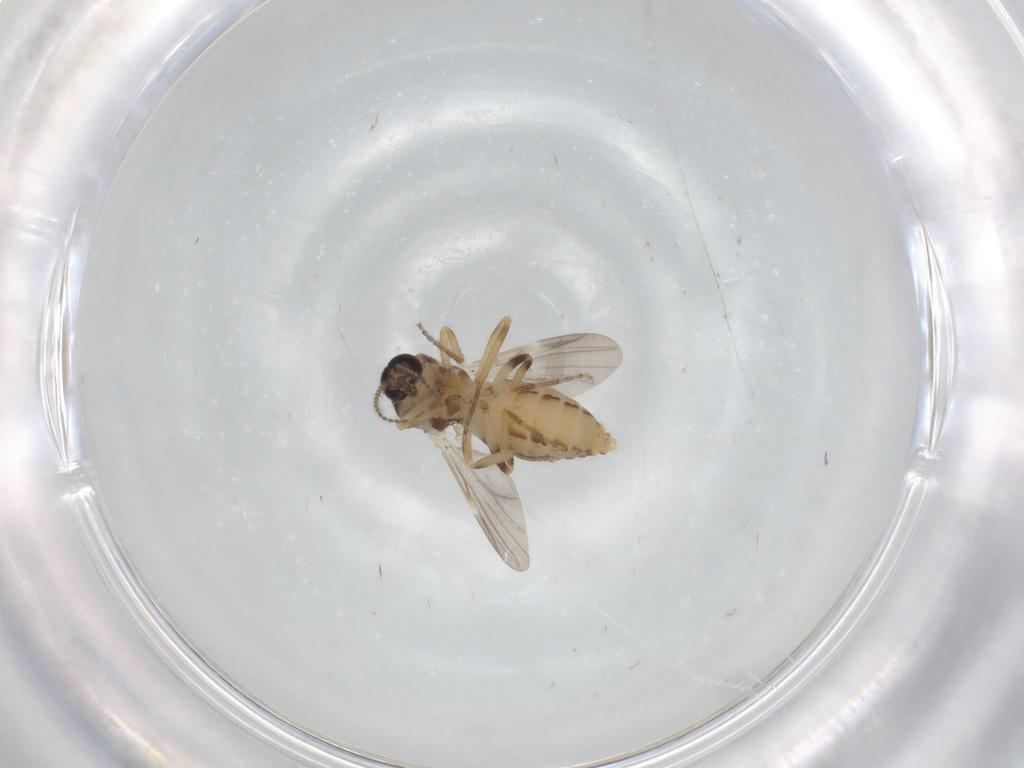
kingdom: Animalia
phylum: Arthropoda
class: Insecta
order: Diptera
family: Ceratopogonidae
